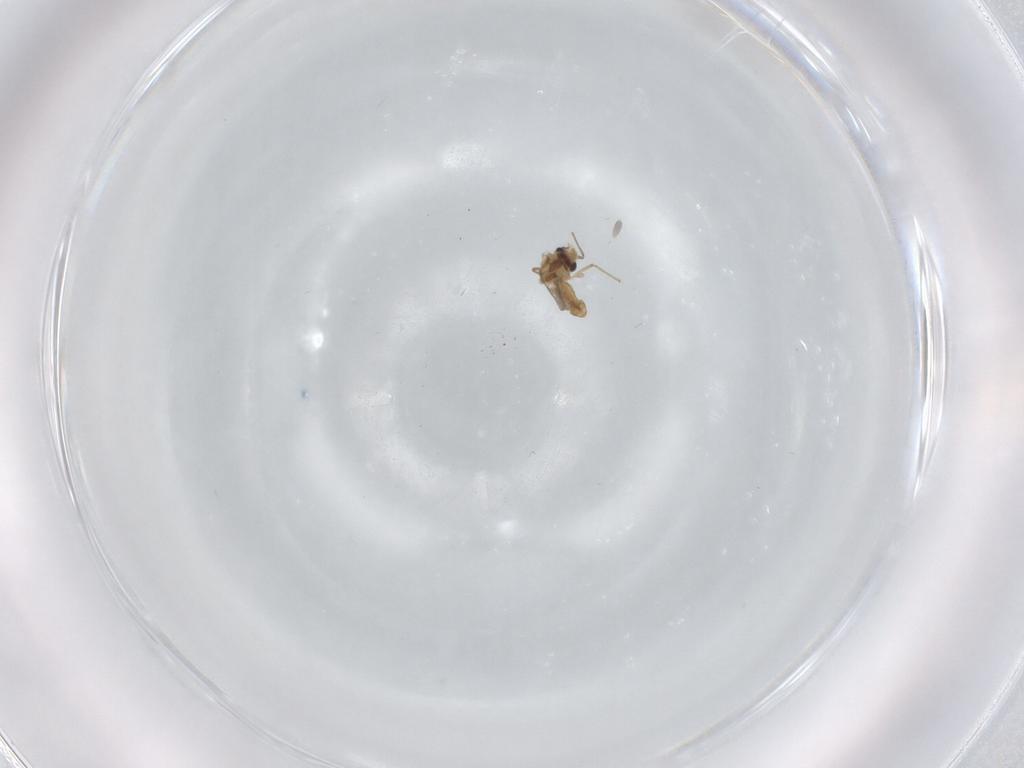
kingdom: Animalia
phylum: Arthropoda
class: Insecta
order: Diptera
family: Chironomidae
